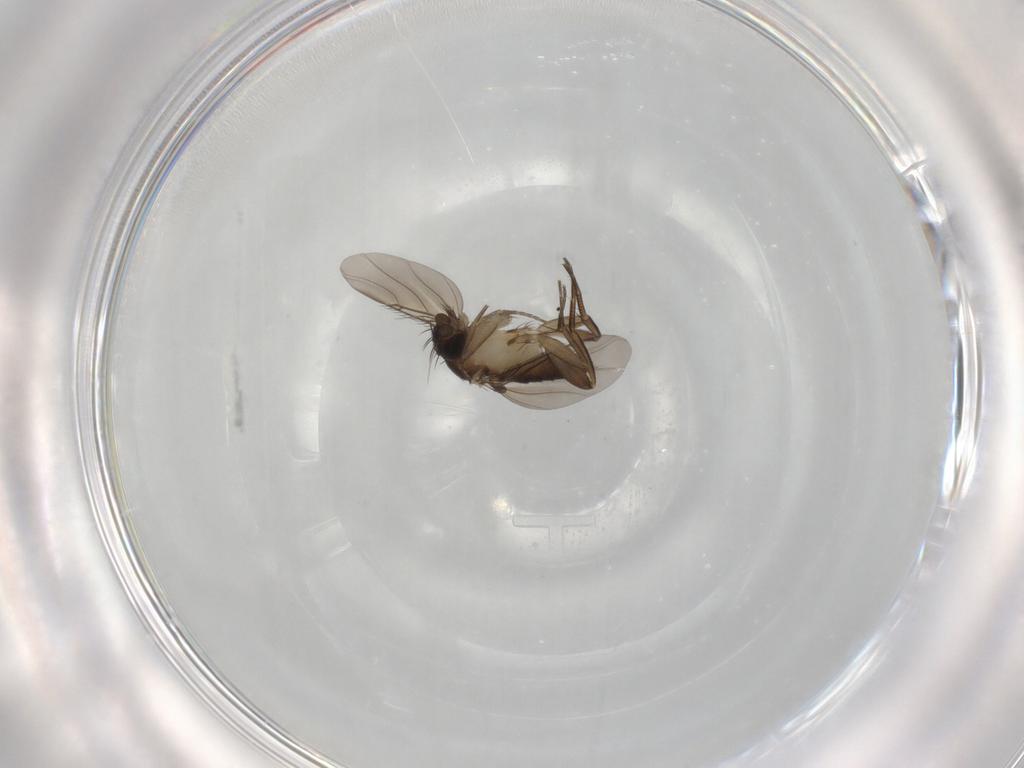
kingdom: Animalia
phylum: Arthropoda
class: Insecta
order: Diptera
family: Phoridae
